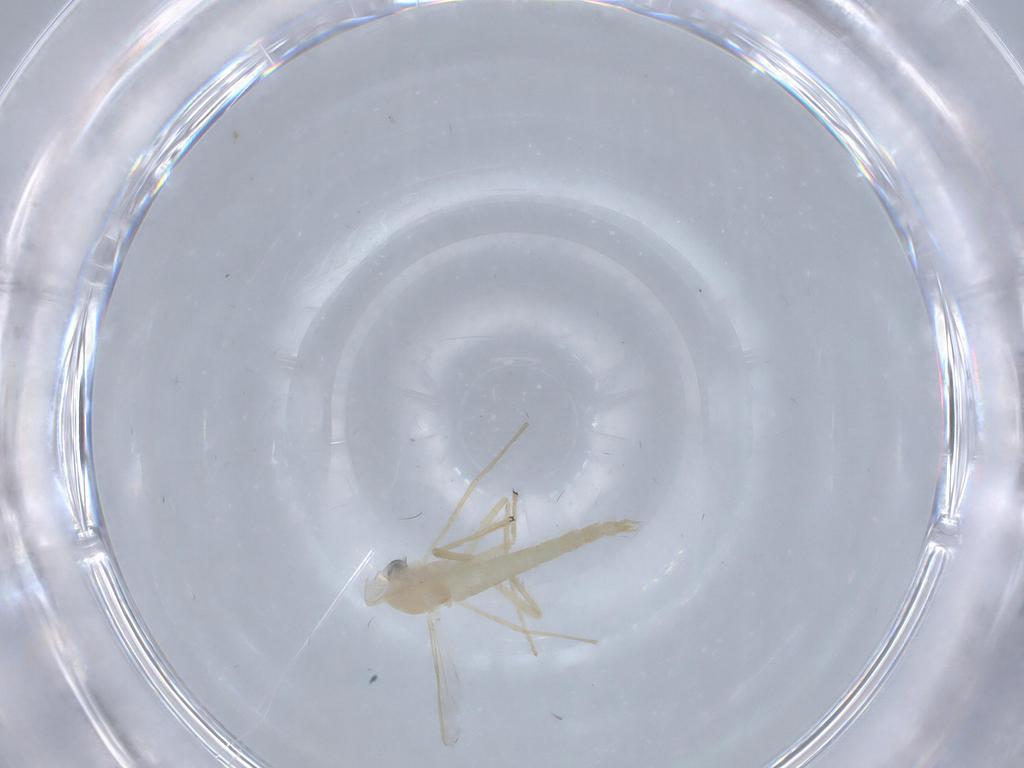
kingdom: Animalia
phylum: Arthropoda
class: Insecta
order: Diptera
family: Chironomidae
